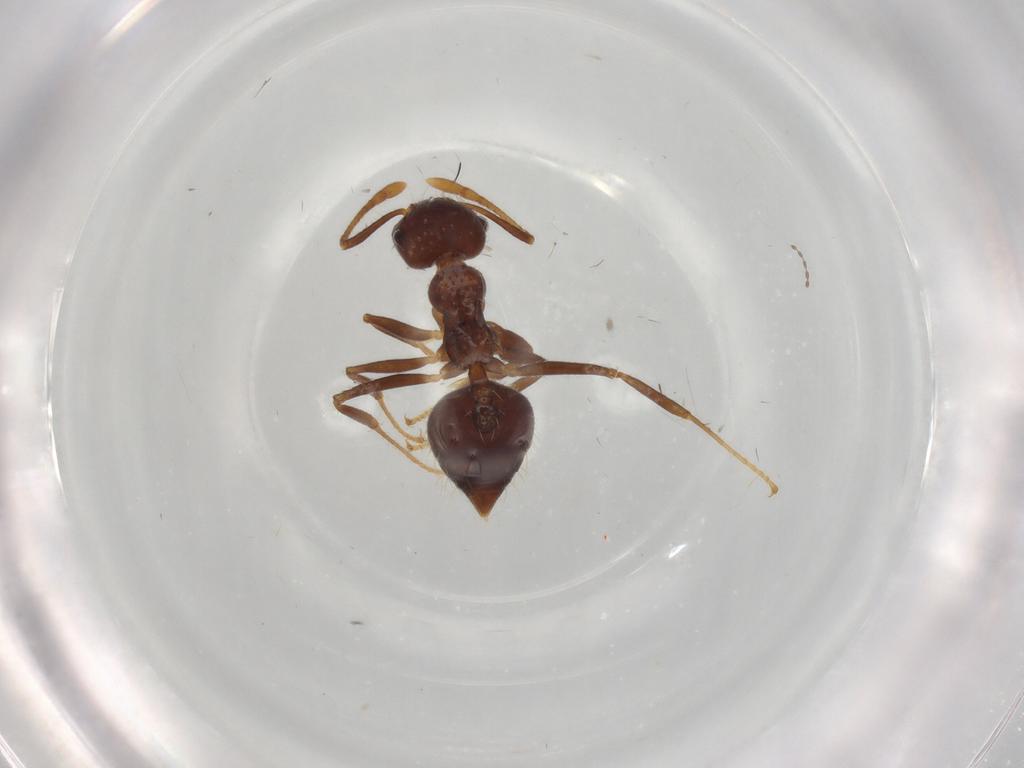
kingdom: Animalia
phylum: Arthropoda
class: Insecta
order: Hymenoptera
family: Formicidae
